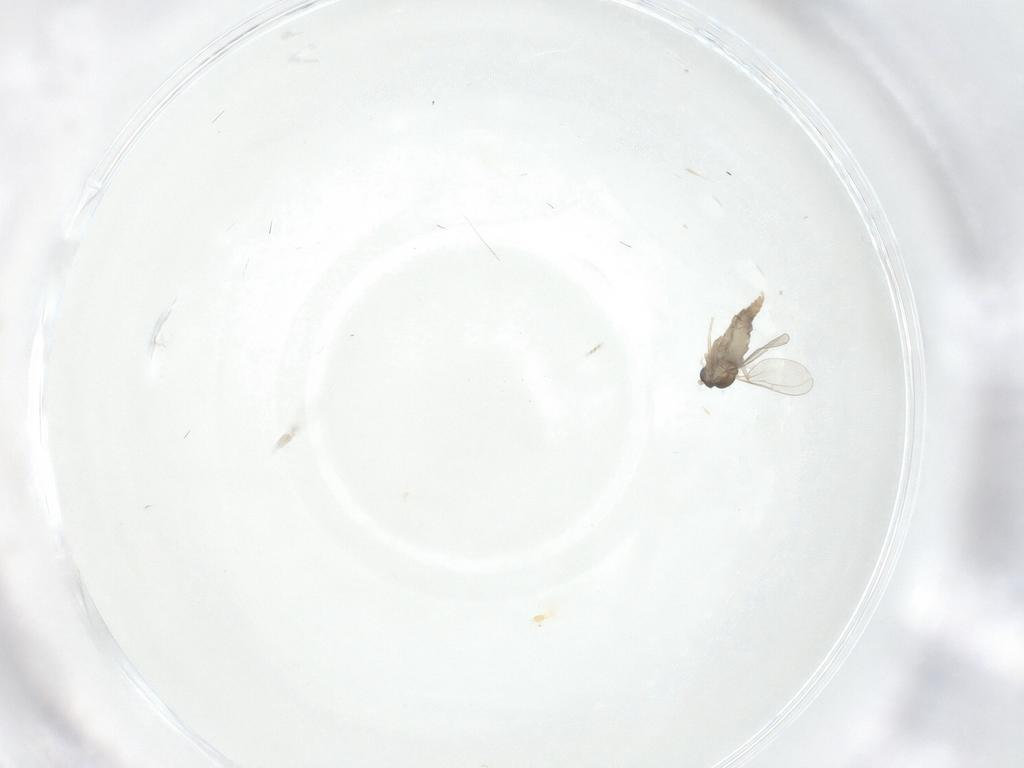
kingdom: Animalia
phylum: Arthropoda
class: Insecta
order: Diptera
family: Cecidomyiidae
